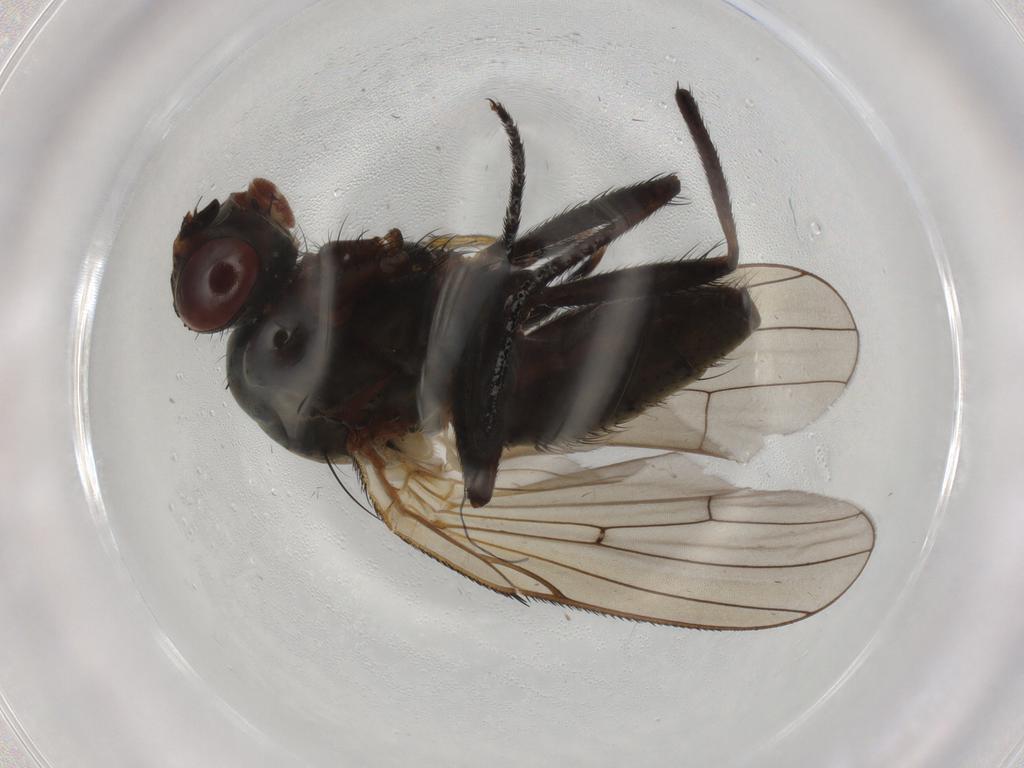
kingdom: Animalia
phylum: Arthropoda
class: Insecta
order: Diptera
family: Anthomyiidae
